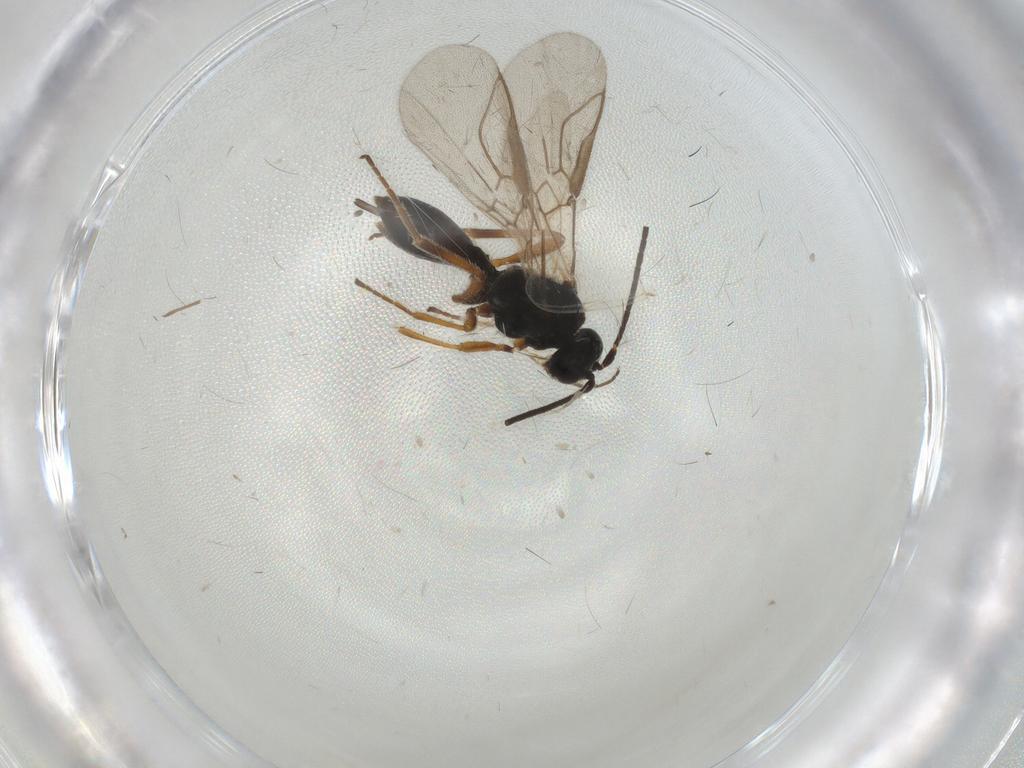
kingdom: Animalia
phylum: Arthropoda
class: Insecta
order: Hymenoptera
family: Braconidae
